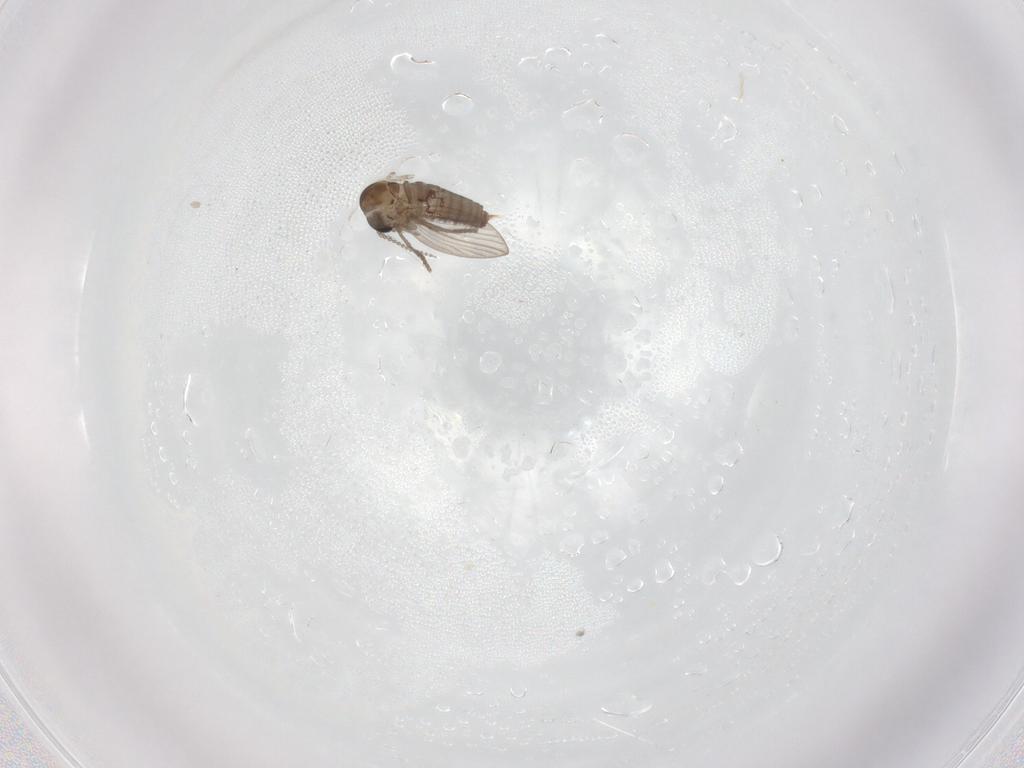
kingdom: Animalia
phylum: Arthropoda
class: Insecta
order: Diptera
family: Psychodidae
